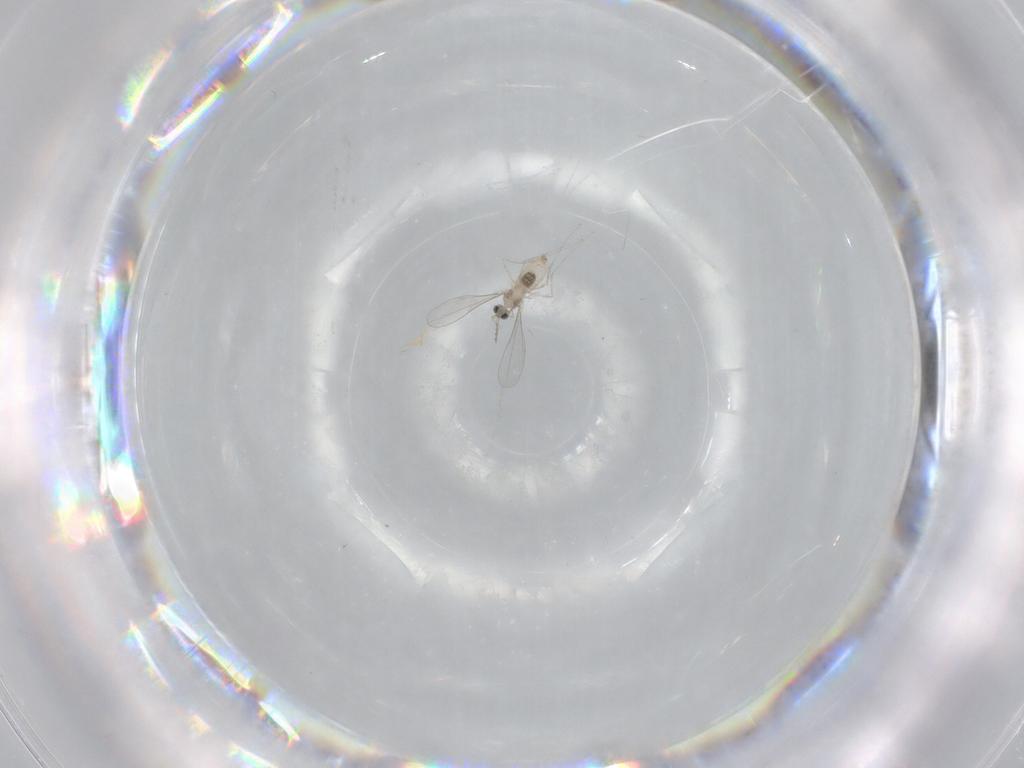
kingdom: Animalia
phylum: Arthropoda
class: Insecta
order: Diptera
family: Cecidomyiidae
